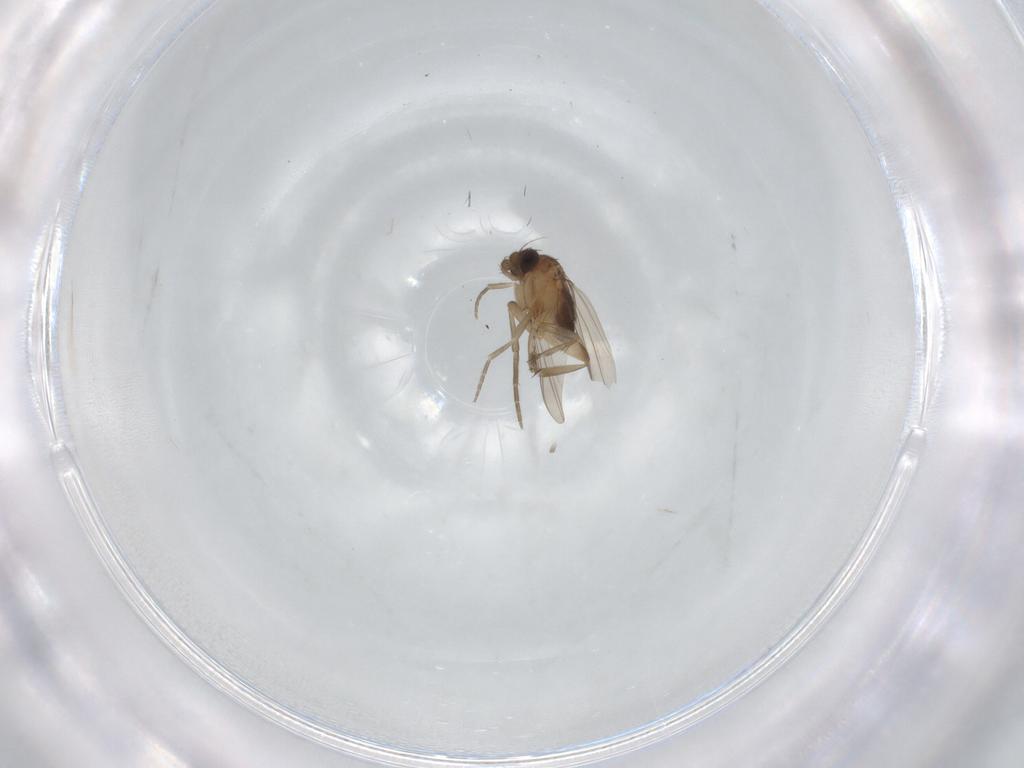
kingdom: Animalia
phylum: Arthropoda
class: Insecta
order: Diptera
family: Phoridae
